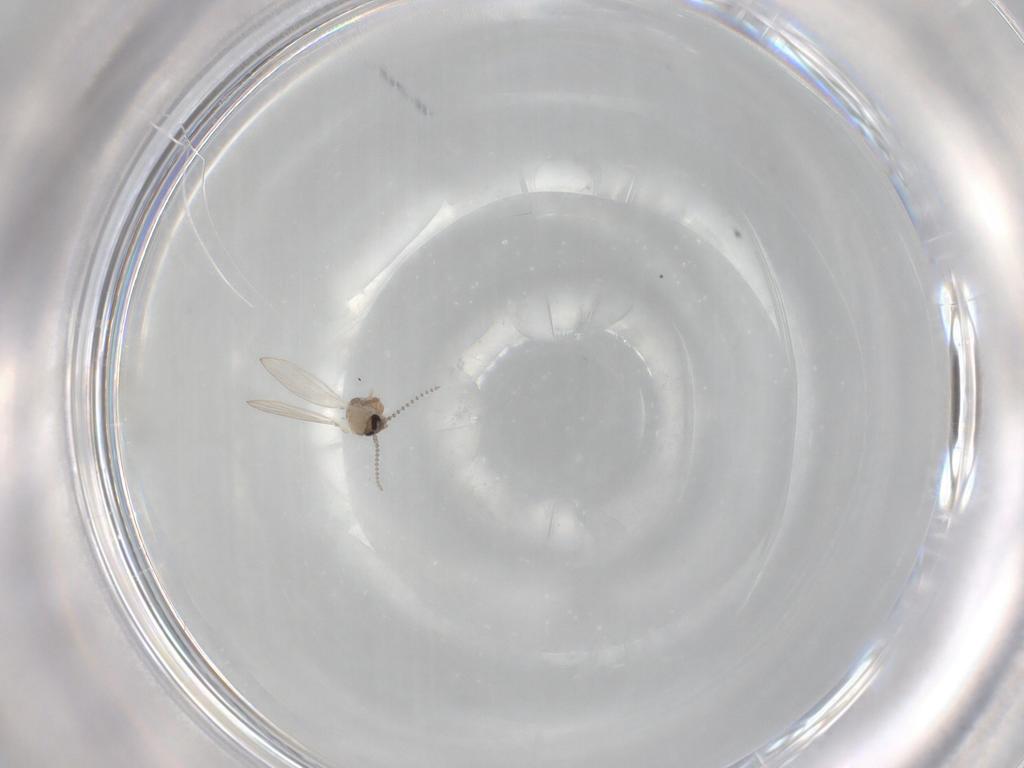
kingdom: Animalia
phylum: Arthropoda
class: Insecta
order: Diptera
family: Psychodidae
